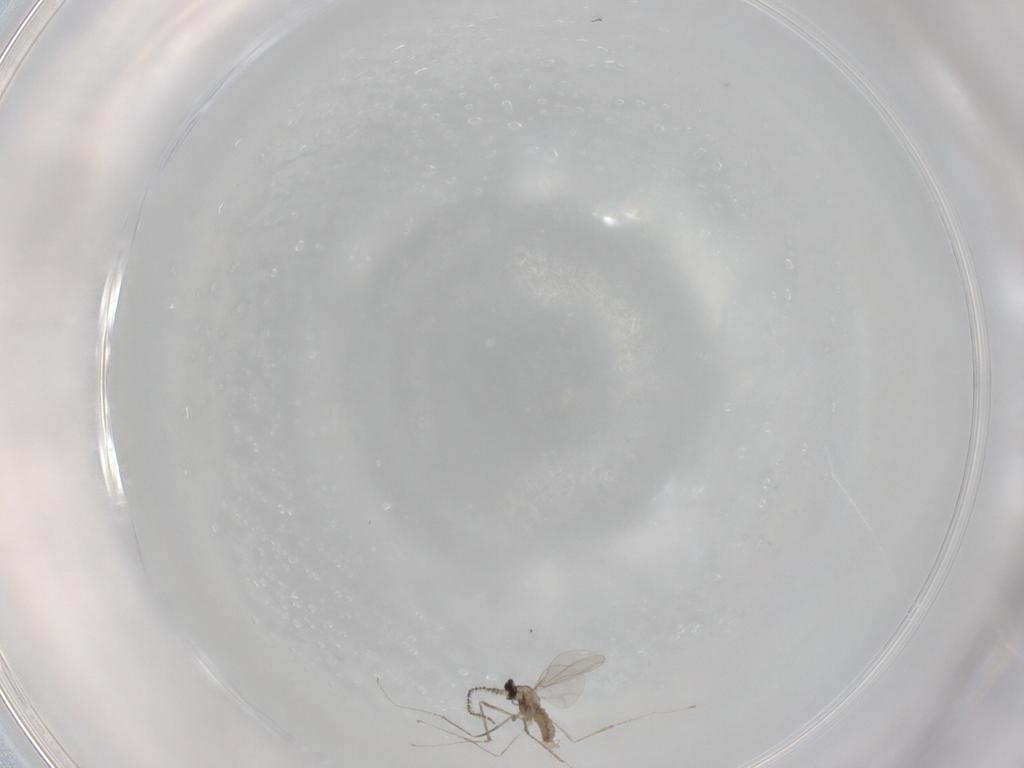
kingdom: Animalia
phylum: Arthropoda
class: Insecta
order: Diptera
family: Cecidomyiidae
